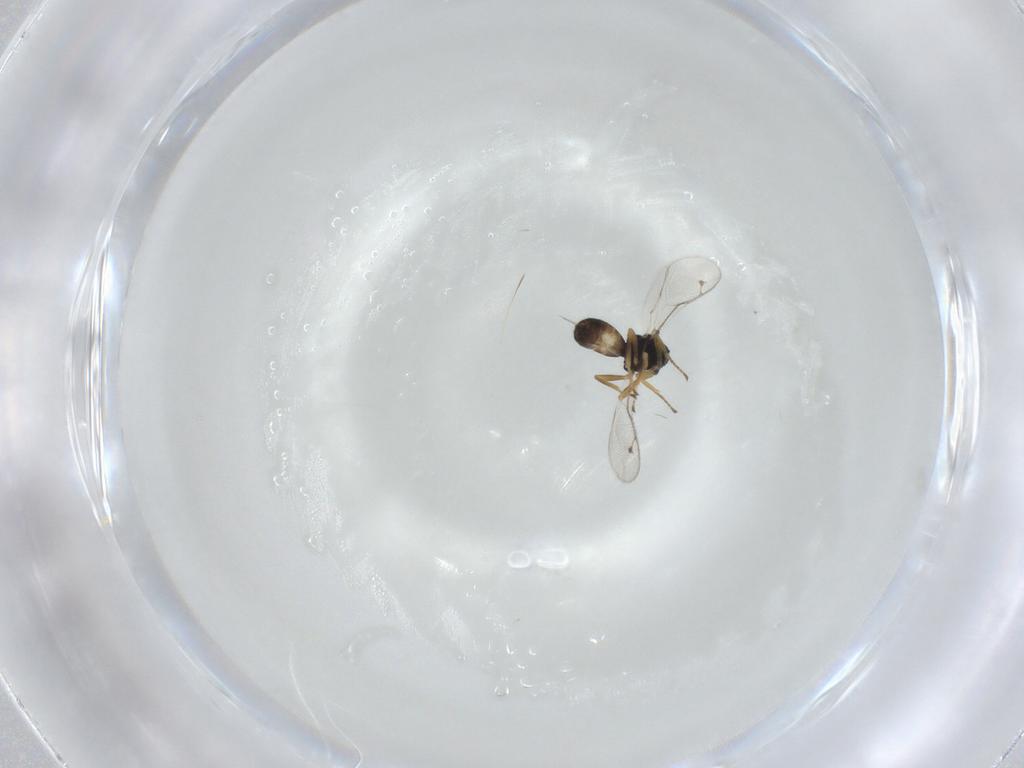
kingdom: Animalia
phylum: Arthropoda
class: Insecta
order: Hymenoptera
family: Pteromalidae
